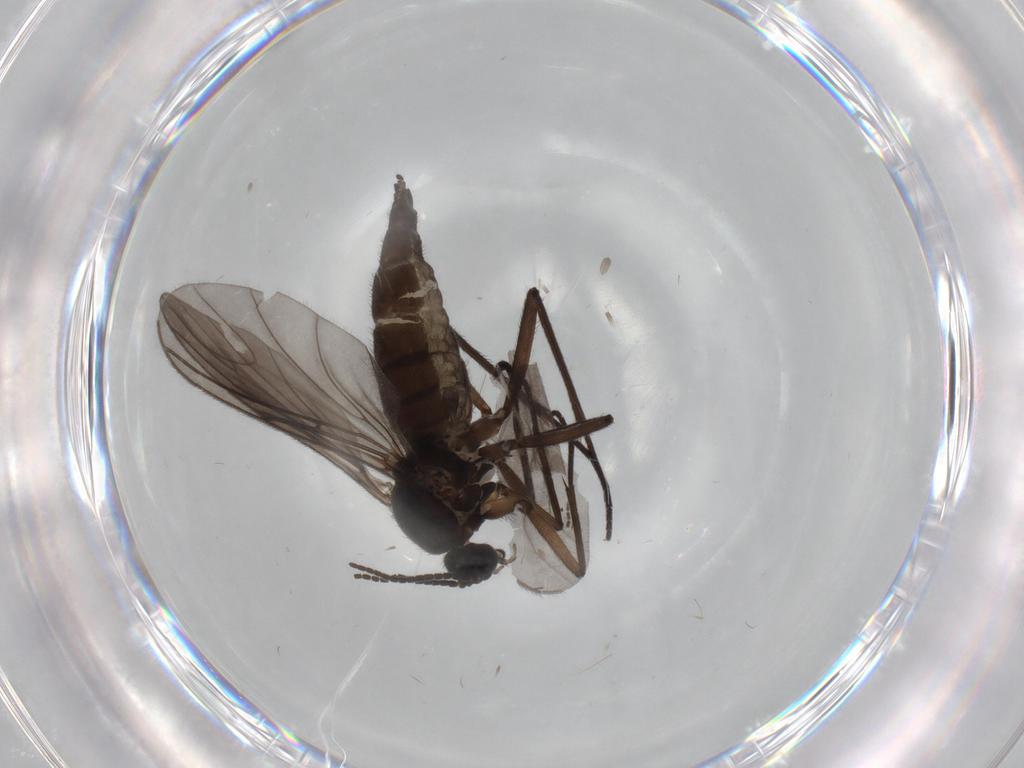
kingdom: Animalia
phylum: Arthropoda
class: Insecta
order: Diptera
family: Sciaridae
